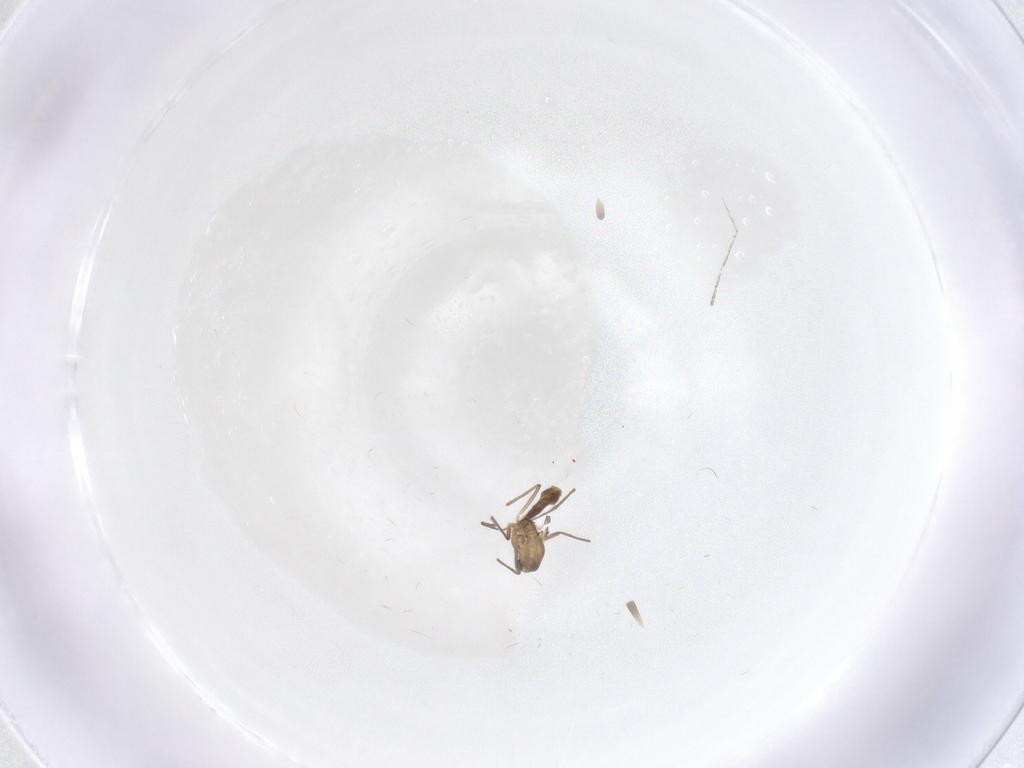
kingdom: Animalia
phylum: Arthropoda
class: Insecta
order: Diptera
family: Chironomidae
